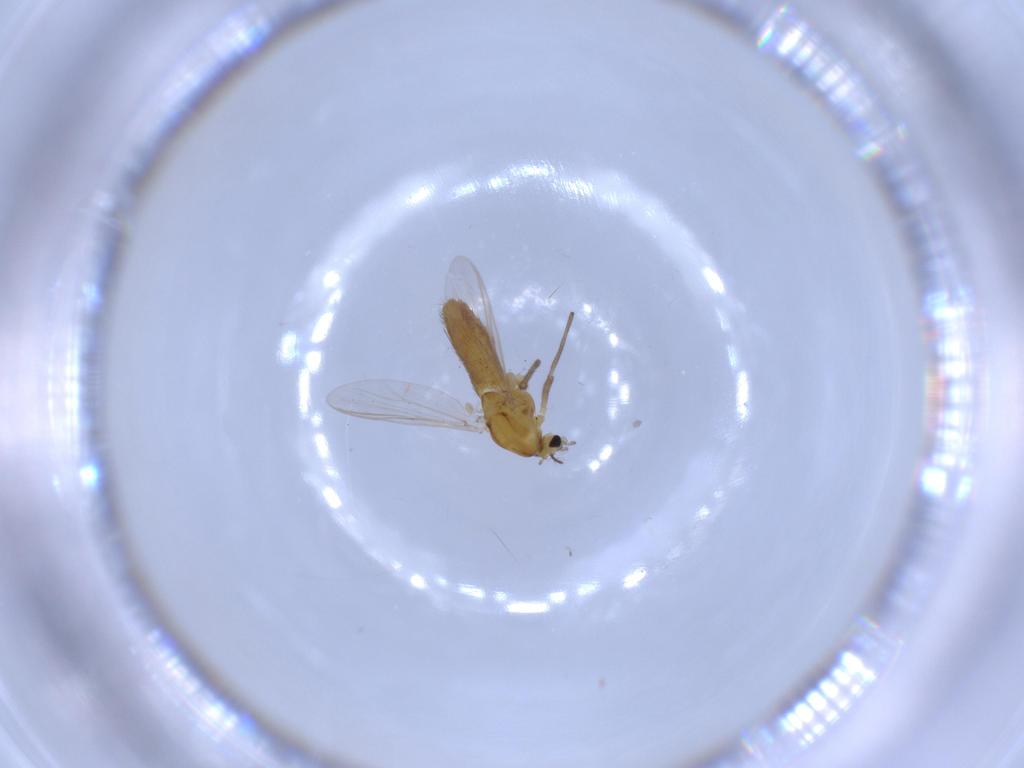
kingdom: Animalia
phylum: Arthropoda
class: Insecta
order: Diptera
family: Chironomidae
